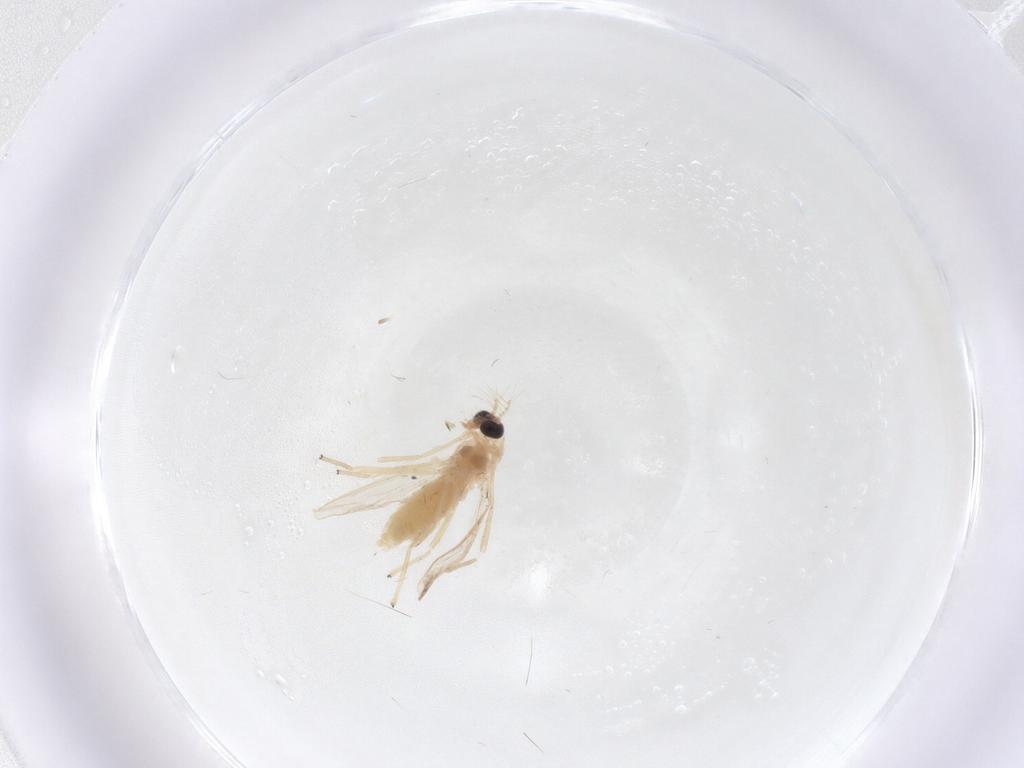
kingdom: Animalia
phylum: Arthropoda
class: Insecta
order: Diptera
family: Chironomidae
